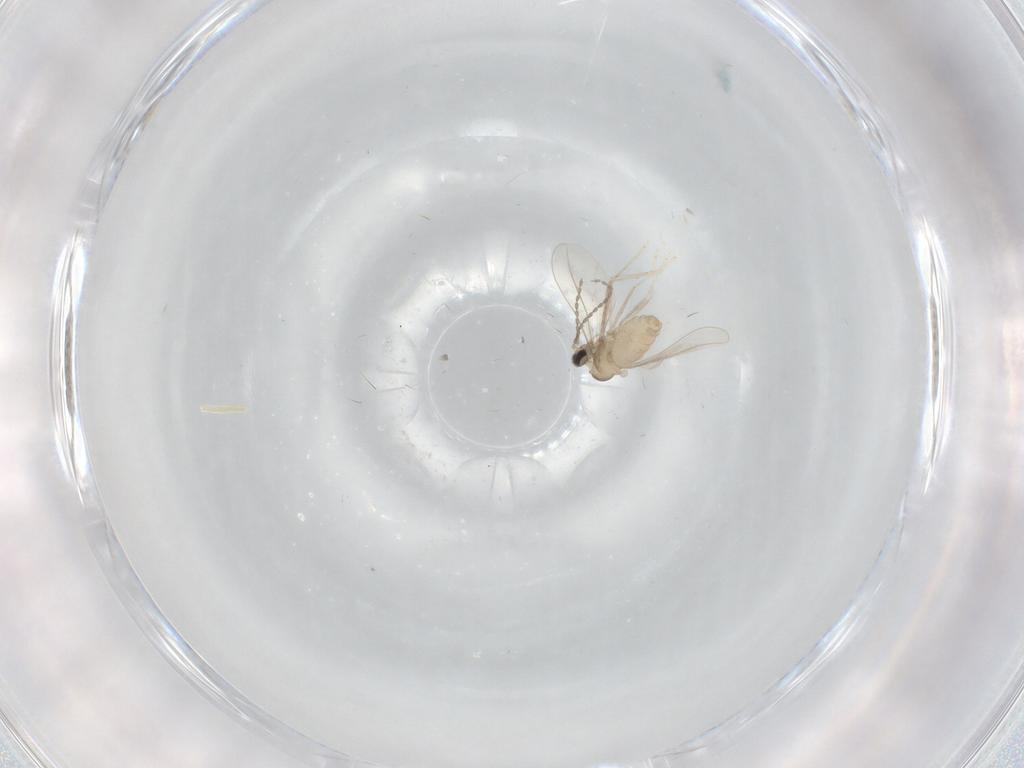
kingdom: Animalia
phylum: Arthropoda
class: Insecta
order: Diptera
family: Cecidomyiidae
